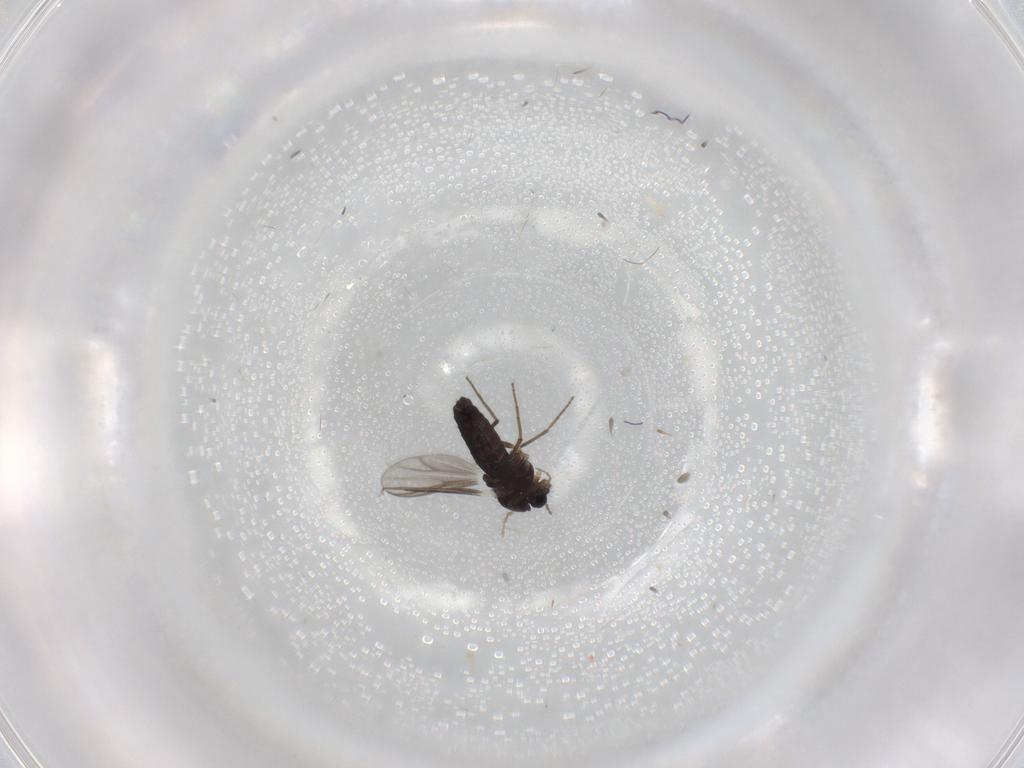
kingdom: Animalia
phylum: Arthropoda
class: Insecta
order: Diptera
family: Chironomidae
